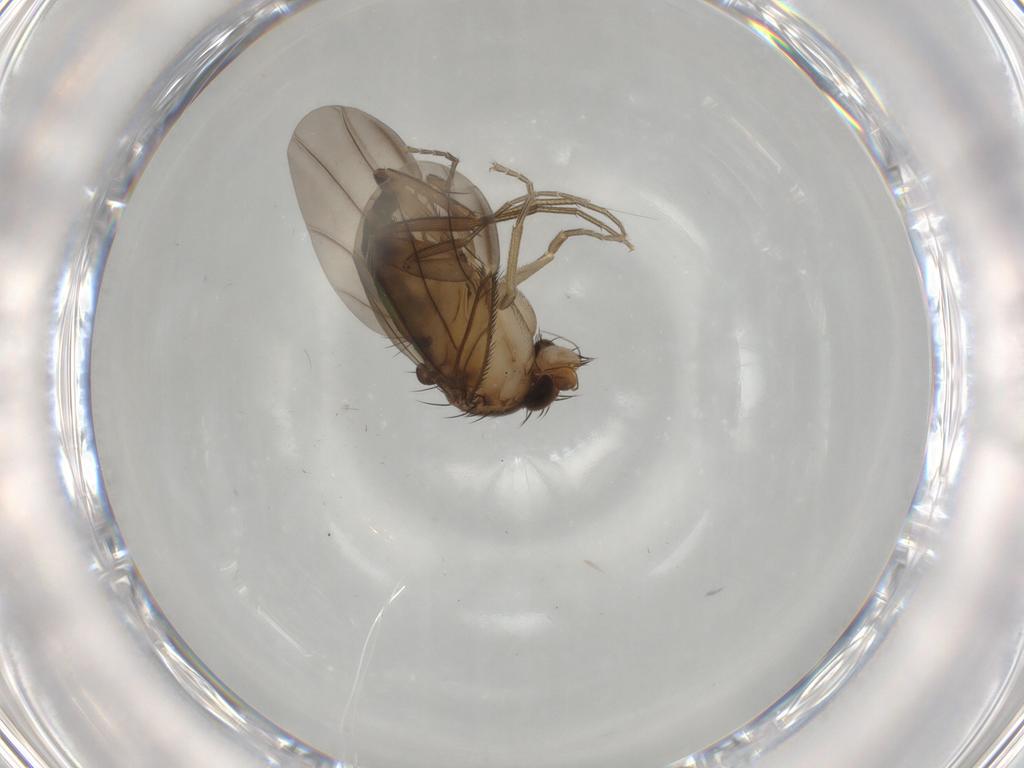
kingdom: Animalia
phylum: Arthropoda
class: Insecta
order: Diptera
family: Phoridae
